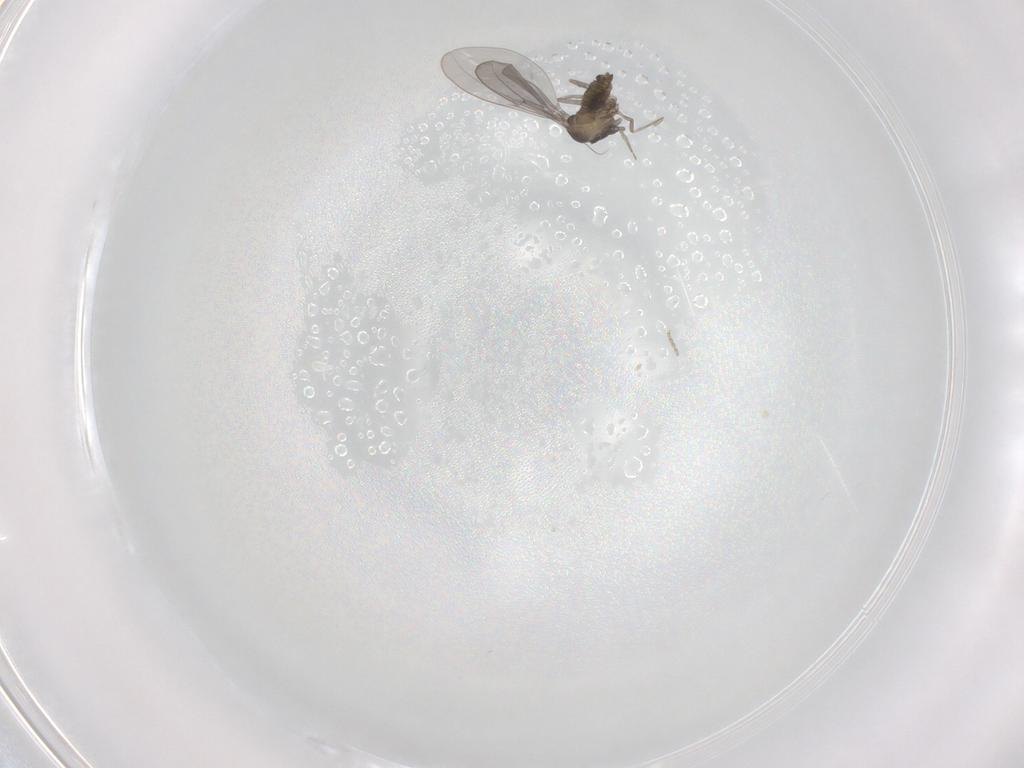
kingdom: Animalia
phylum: Arthropoda
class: Insecta
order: Diptera
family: Cecidomyiidae
